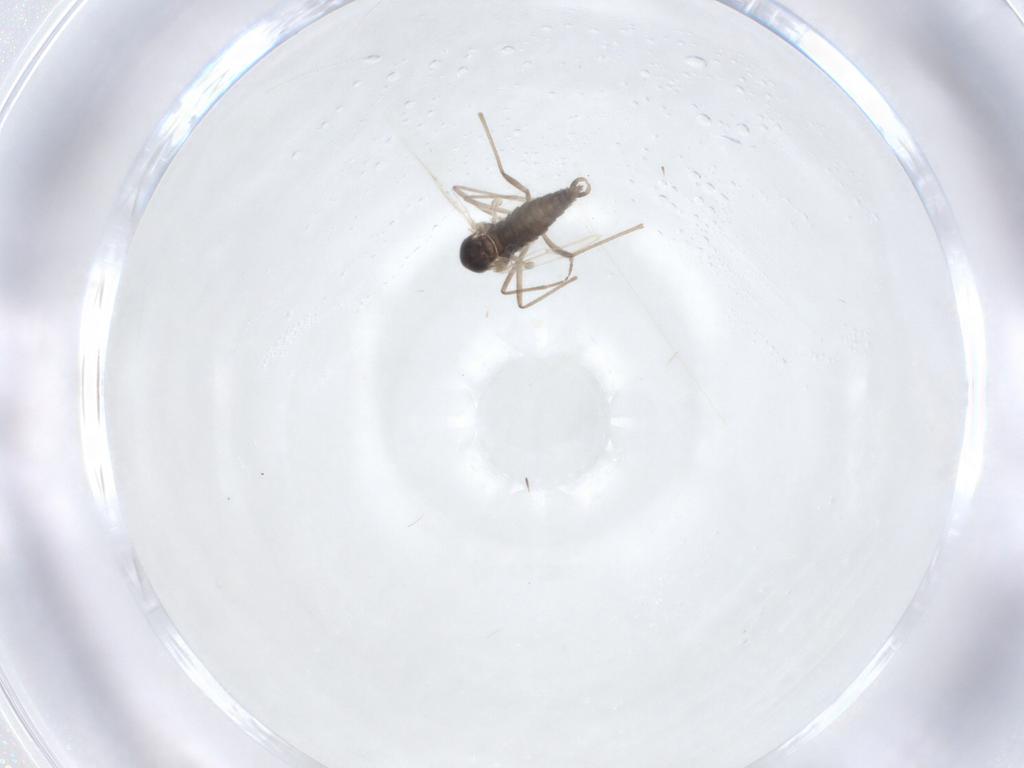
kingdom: Animalia
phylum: Arthropoda
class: Insecta
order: Diptera
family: Cecidomyiidae
